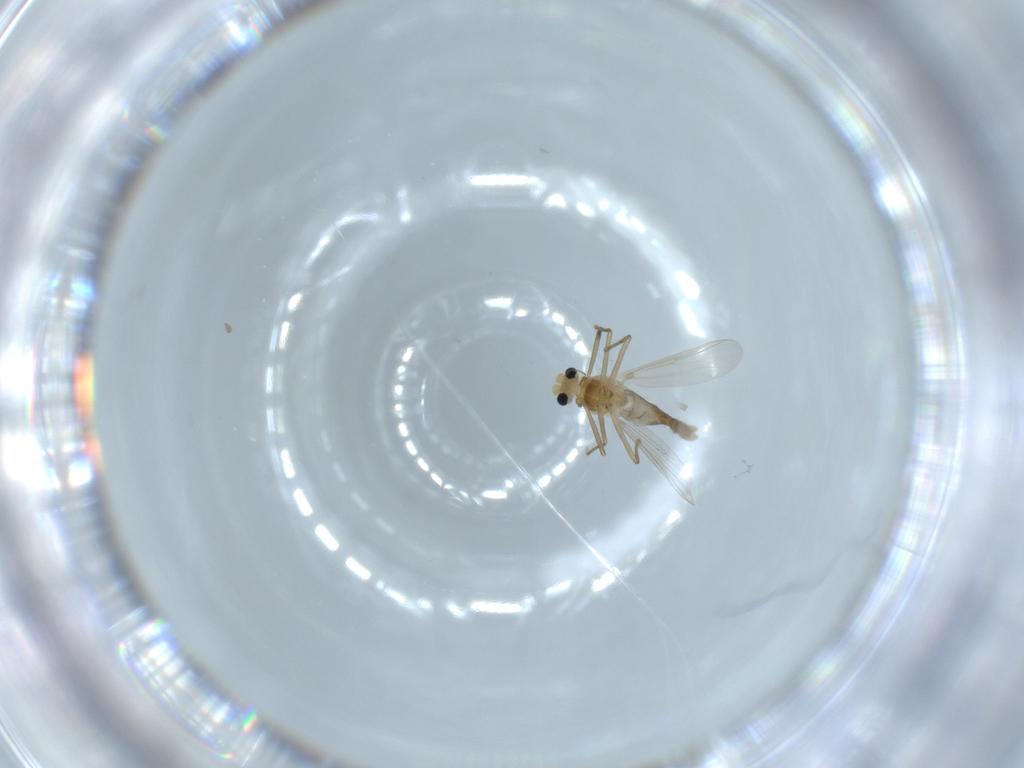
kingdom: Animalia
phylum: Arthropoda
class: Insecta
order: Diptera
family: Chironomidae
